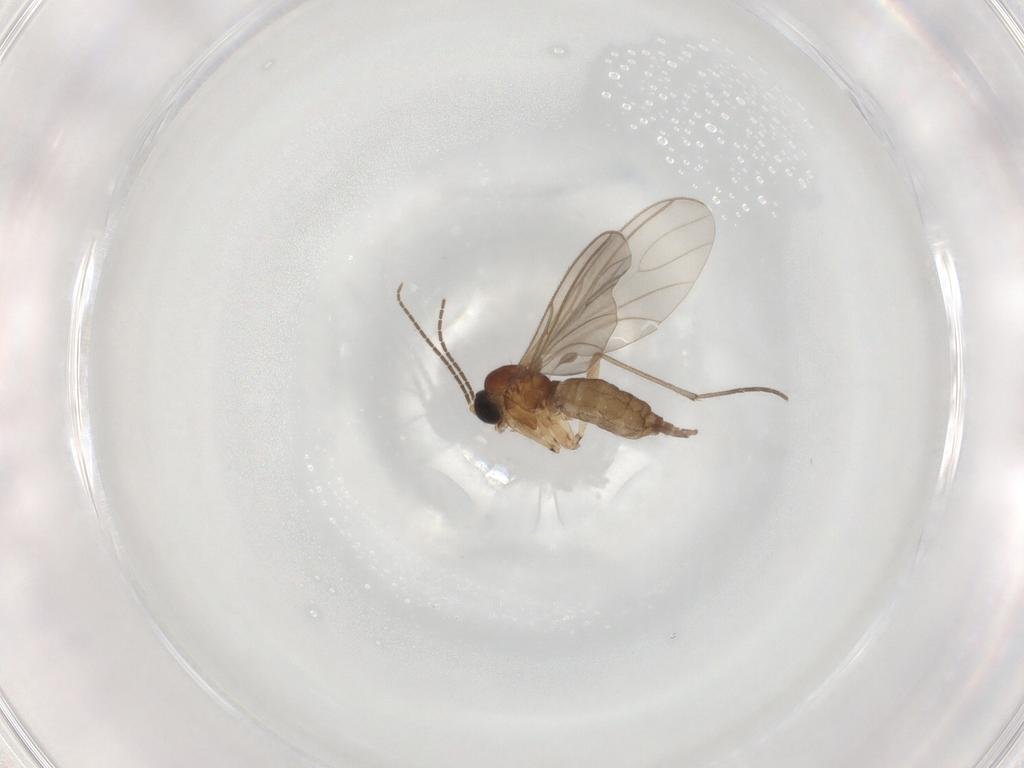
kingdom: Animalia
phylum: Arthropoda
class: Insecta
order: Diptera
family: Sciaridae
